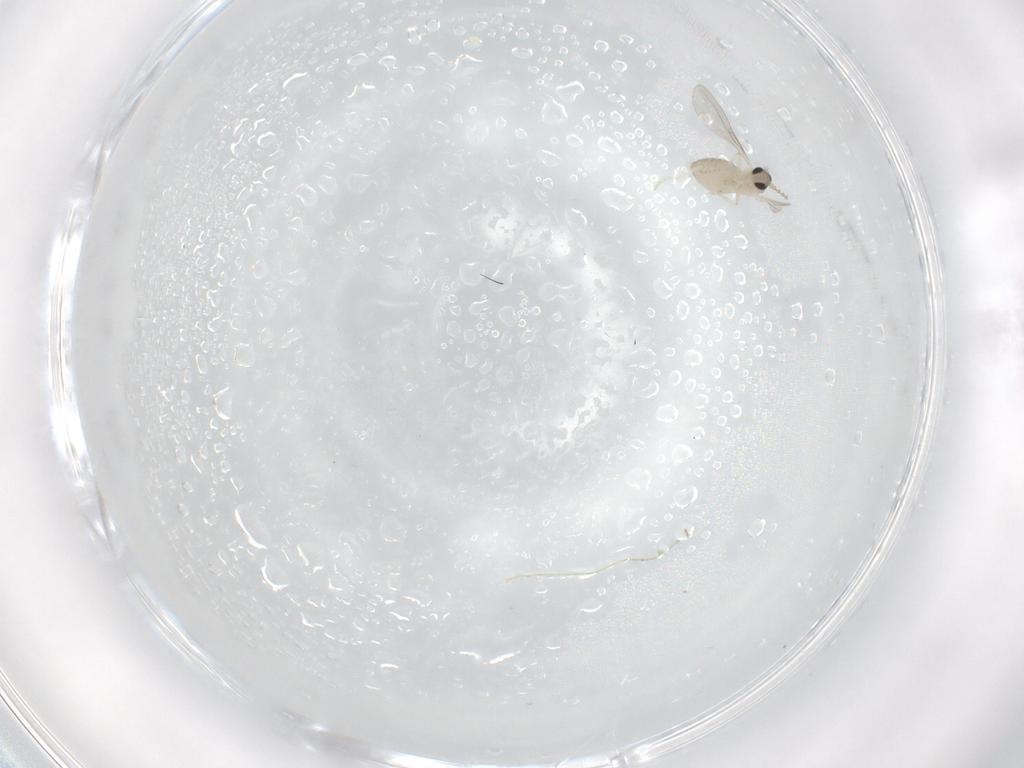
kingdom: Animalia
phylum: Arthropoda
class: Insecta
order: Diptera
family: Cecidomyiidae
